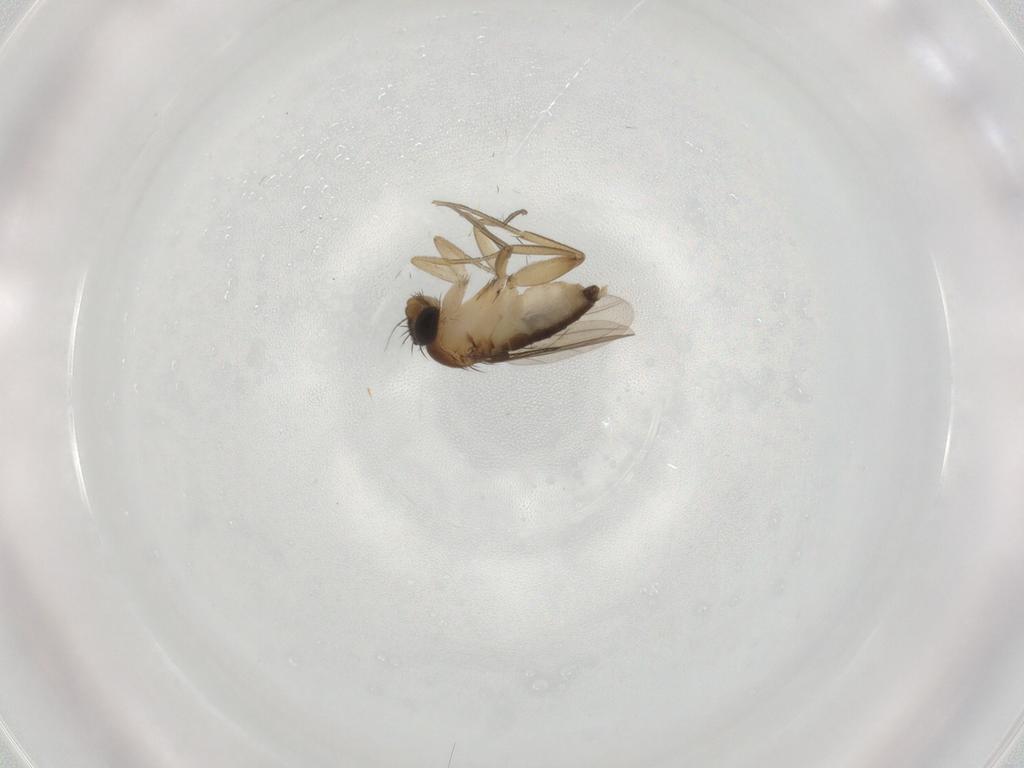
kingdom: Animalia
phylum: Arthropoda
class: Insecta
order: Diptera
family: Phoridae
